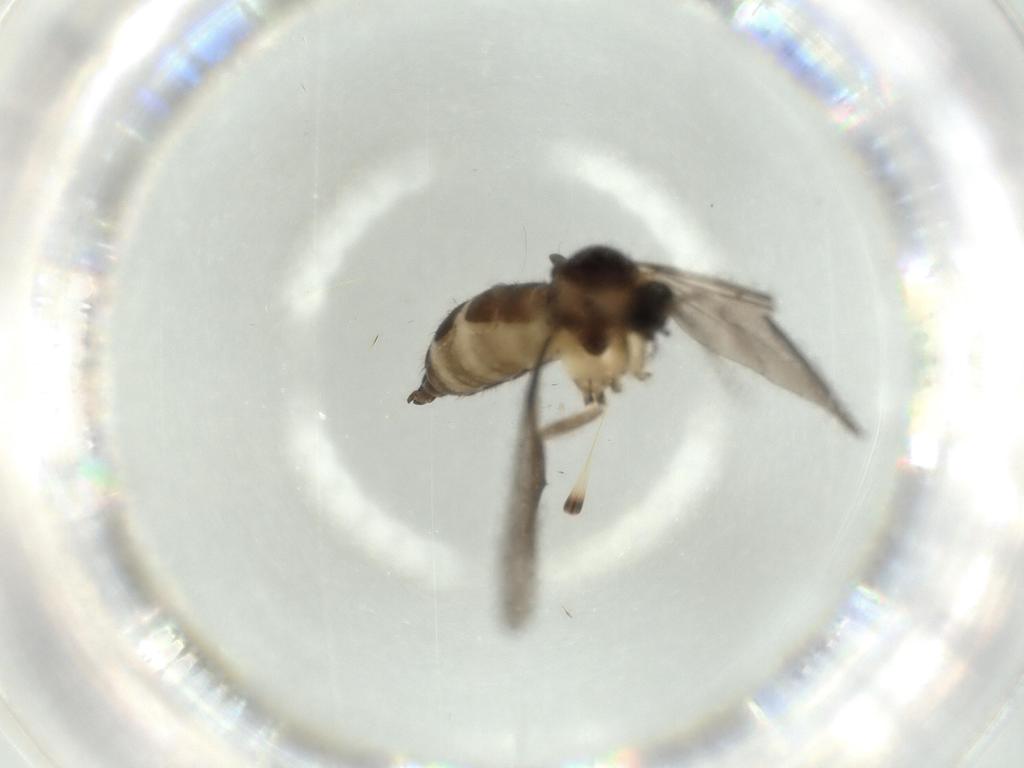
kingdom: Animalia
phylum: Arthropoda
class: Insecta
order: Diptera
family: Sciaridae
